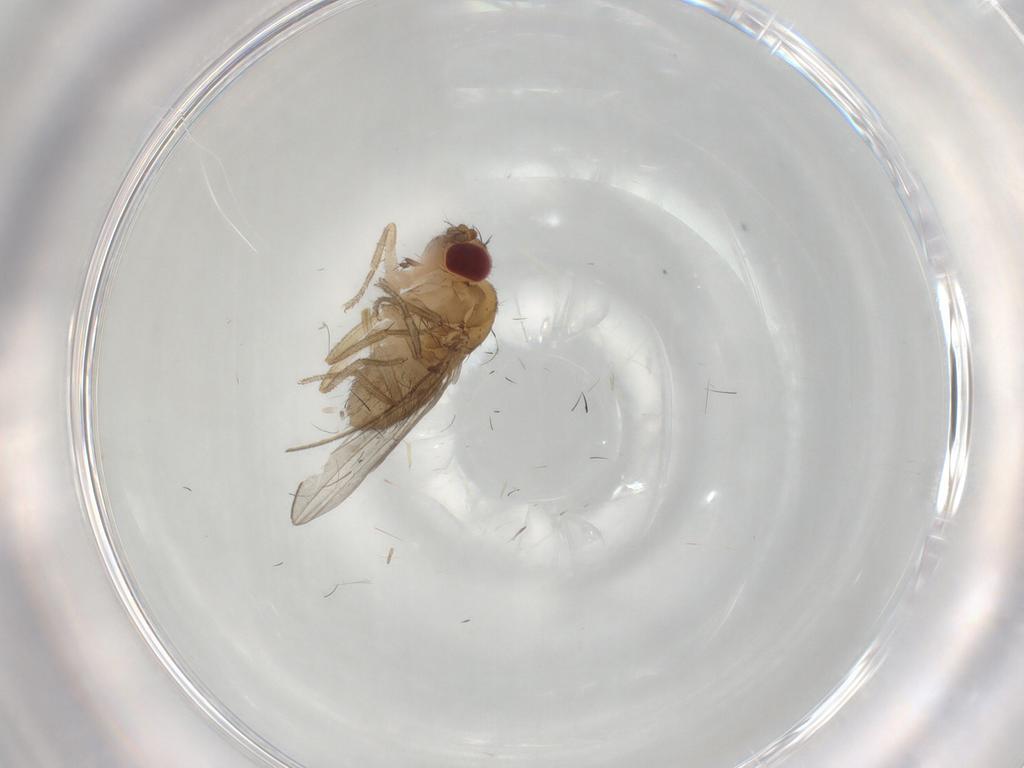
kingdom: Animalia
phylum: Arthropoda
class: Insecta
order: Diptera
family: Drosophilidae
